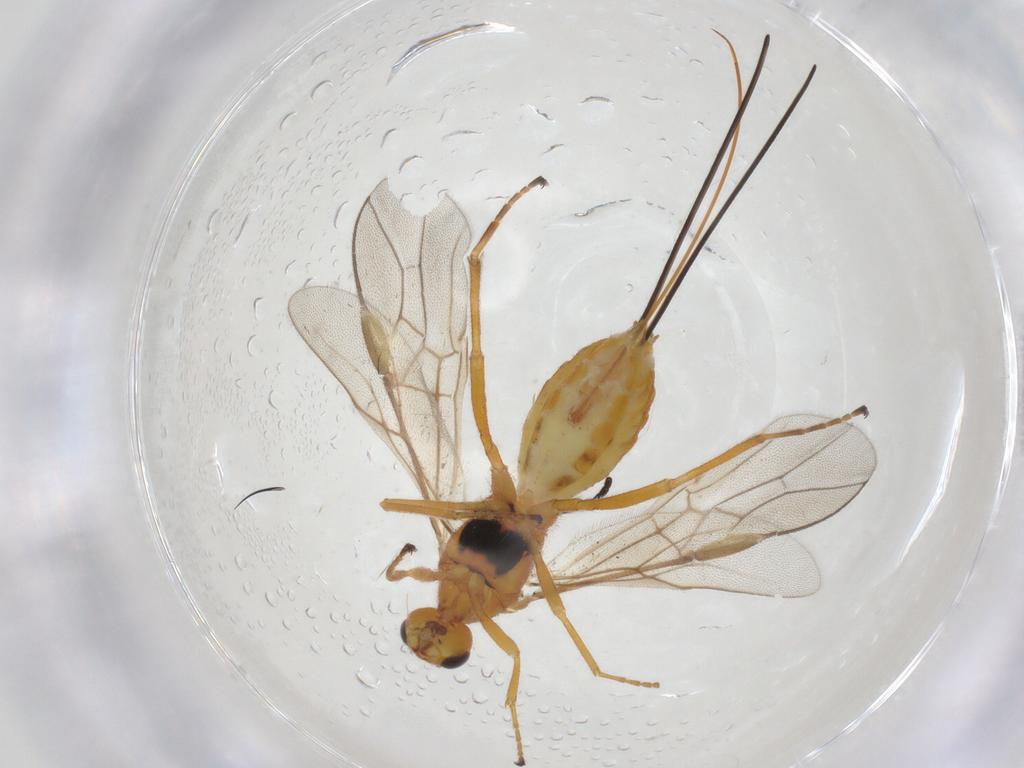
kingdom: Animalia
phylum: Arthropoda
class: Insecta
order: Hymenoptera
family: Braconidae
